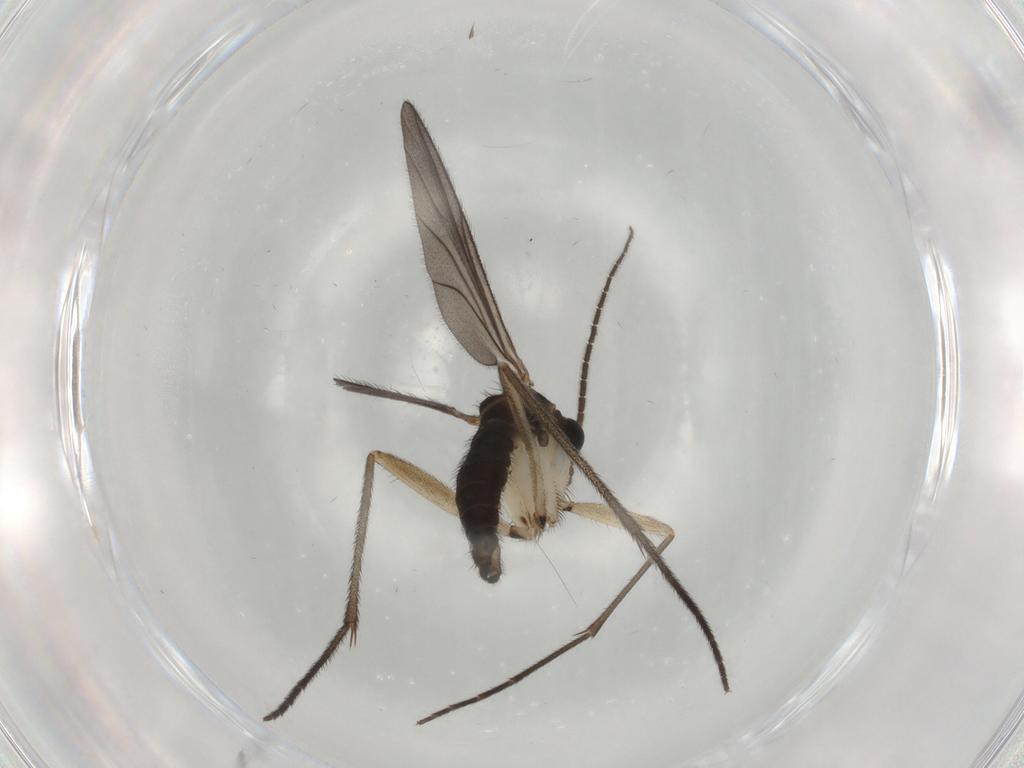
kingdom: Animalia
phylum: Arthropoda
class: Insecta
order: Diptera
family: Sciaridae
